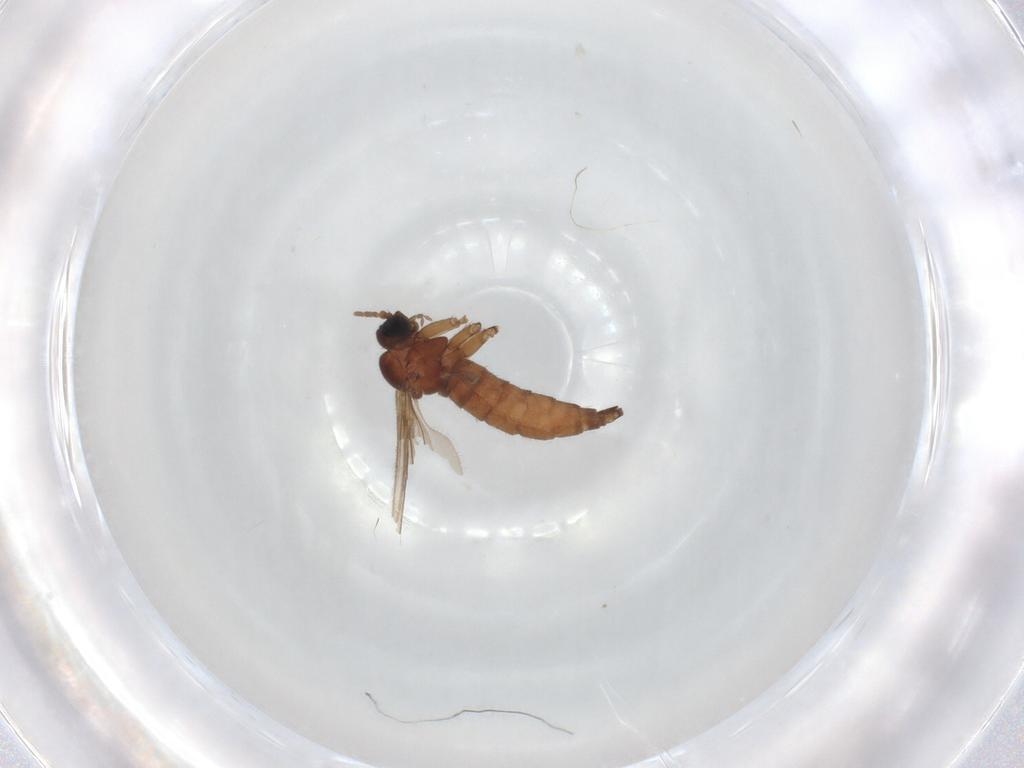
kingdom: Animalia
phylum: Arthropoda
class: Insecta
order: Diptera
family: Sciaridae
